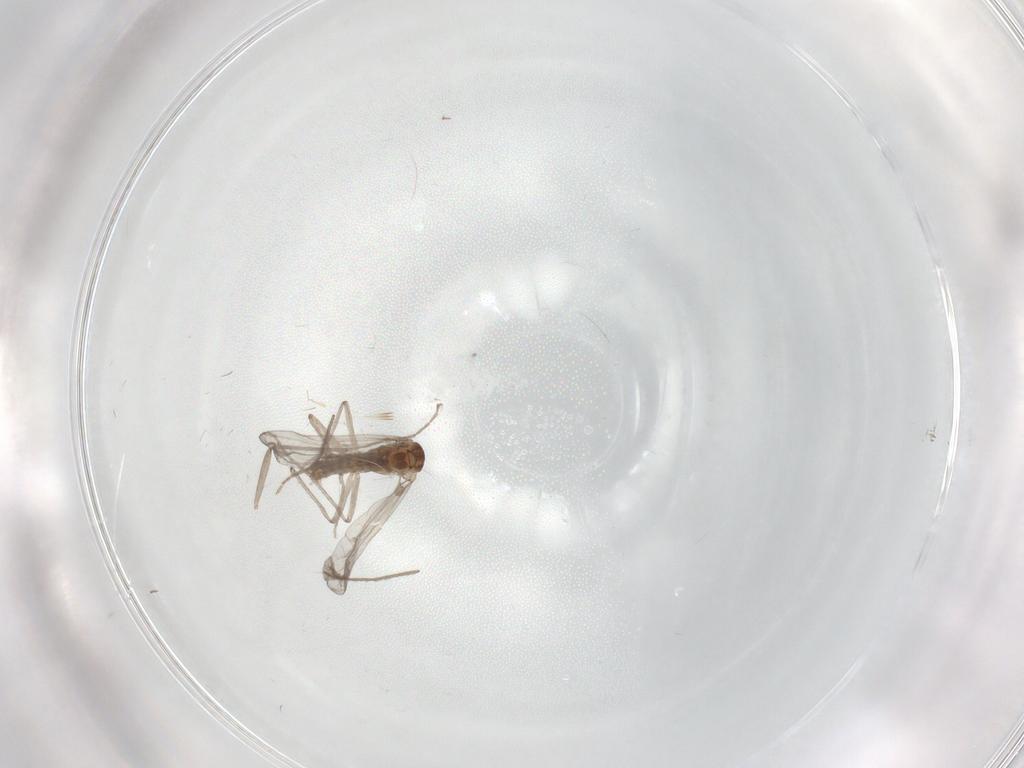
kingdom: Animalia
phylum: Arthropoda
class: Insecta
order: Diptera
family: Chironomidae
